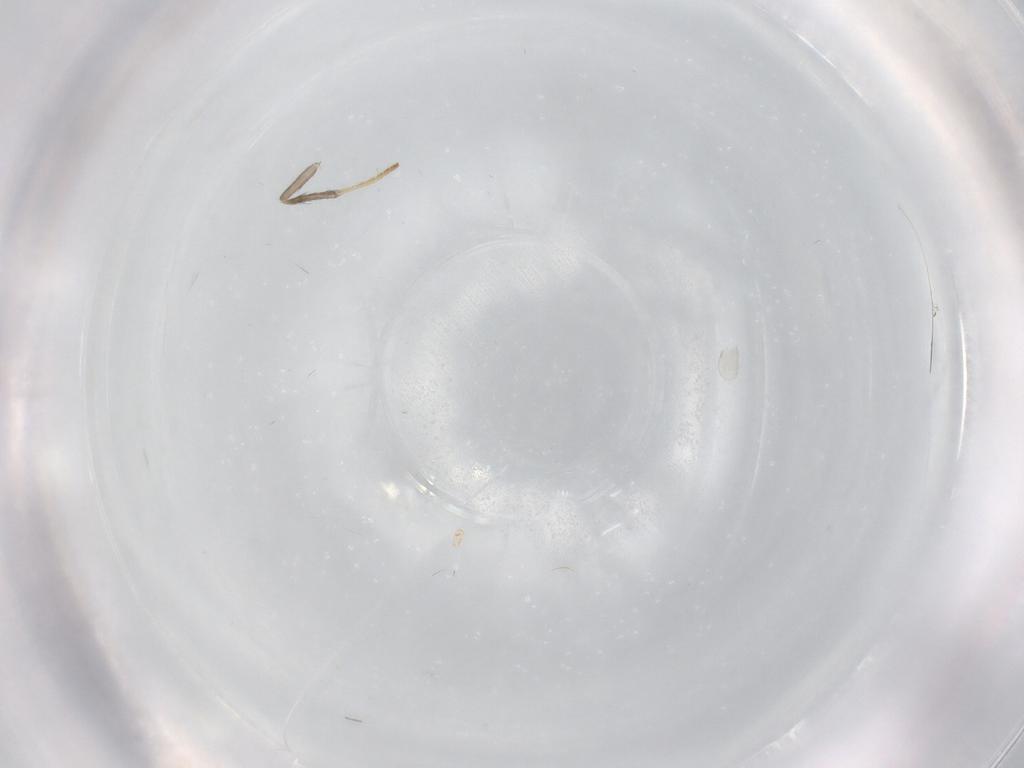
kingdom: Animalia
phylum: Arthropoda
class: Insecta
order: Diptera
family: Cecidomyiidae
